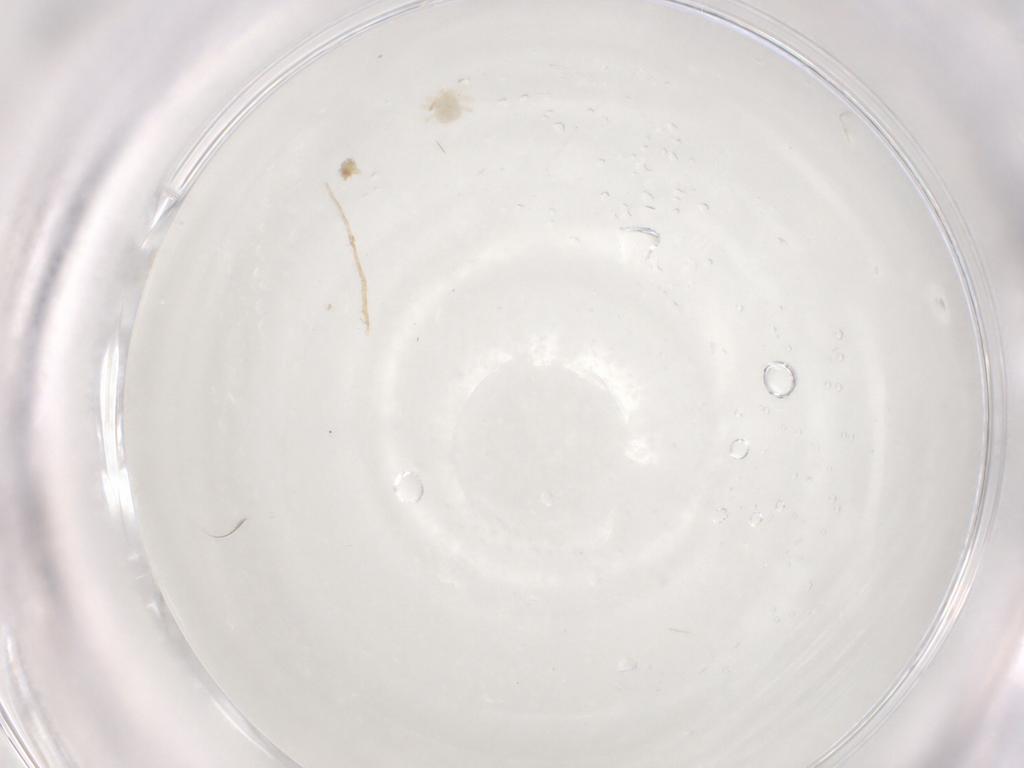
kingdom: Animalia
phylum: Arthropoda
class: Arachnida
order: Trombidiformes
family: Anystidae
